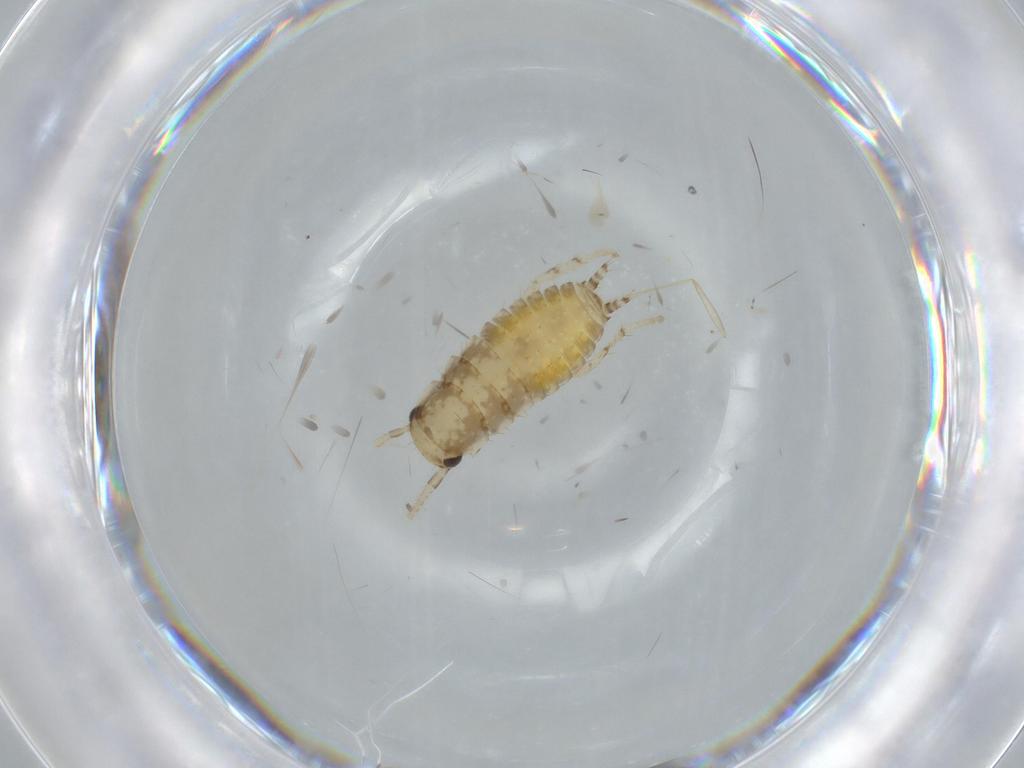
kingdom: Animalia
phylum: Arthropoda
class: Insecta
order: Blattodea
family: Ectobiidae
